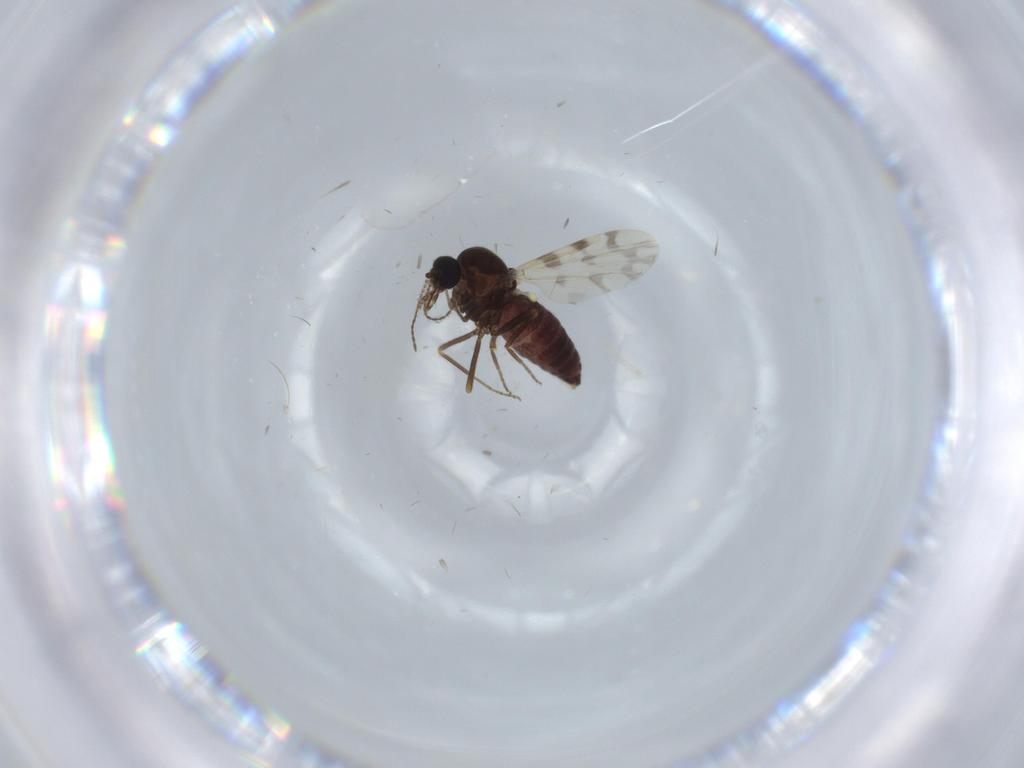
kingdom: Animalia
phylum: Arthropoda
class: Insecta
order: Diptera
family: Ceratopogonidae
